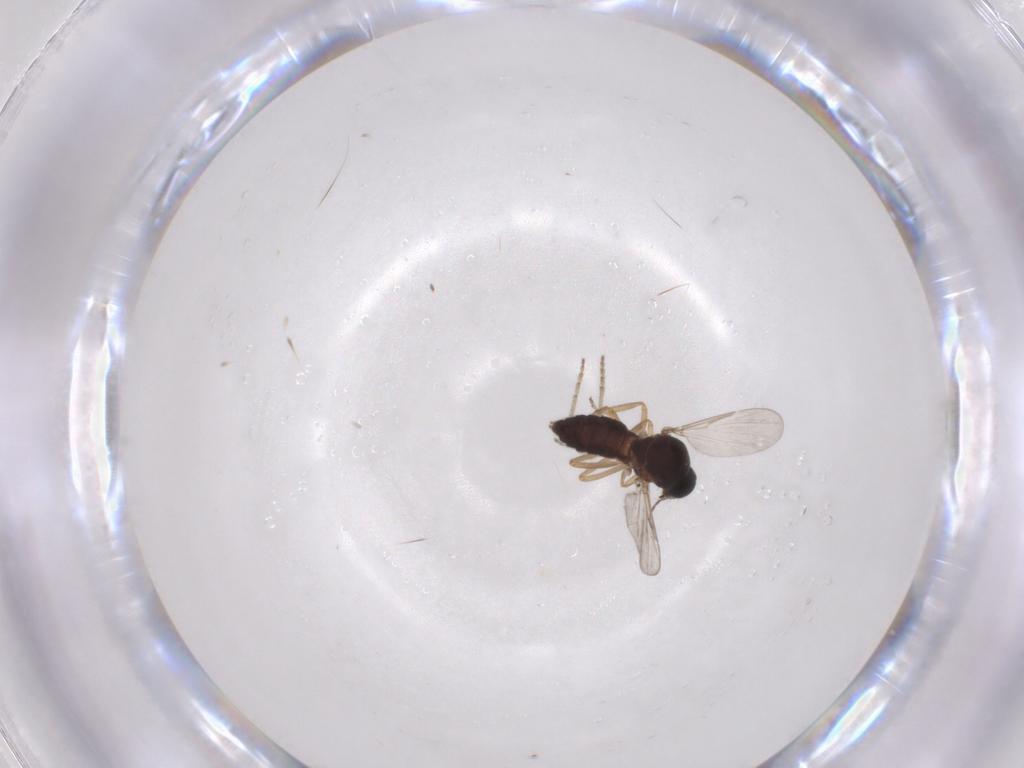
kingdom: Animalia
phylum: Arthropoda
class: Insecta
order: Diptera
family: Ceratopogonidae
